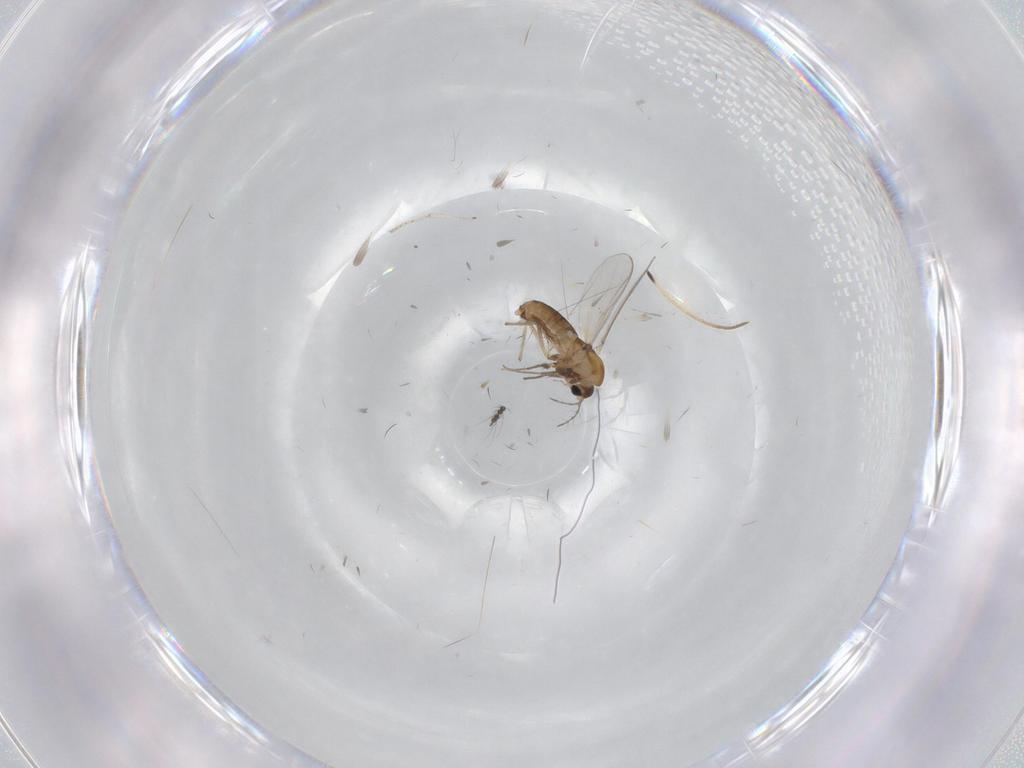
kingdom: Animalia
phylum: Arthropoda
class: Insecta
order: Diptera
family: Chironomidae
